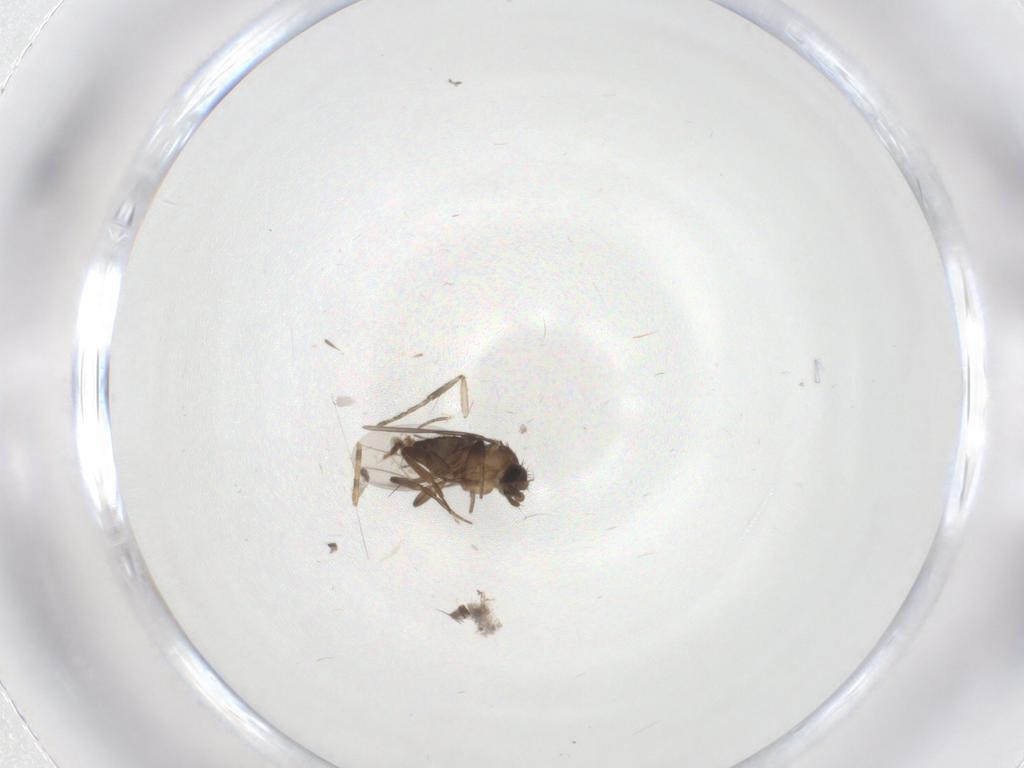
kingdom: Animalia
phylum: Arthropoda
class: Insecta
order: Diptera
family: Phoridae
